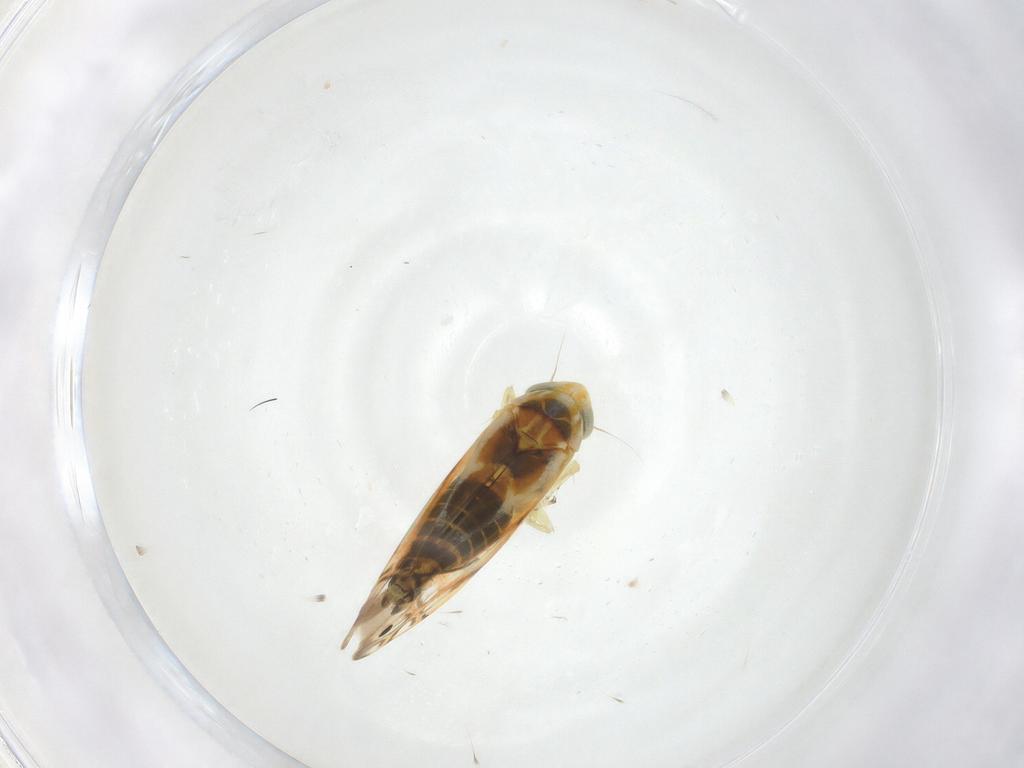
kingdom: Animalia
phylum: Arthropoda
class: Insecta
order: Hemiptera
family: Cicadellidae
